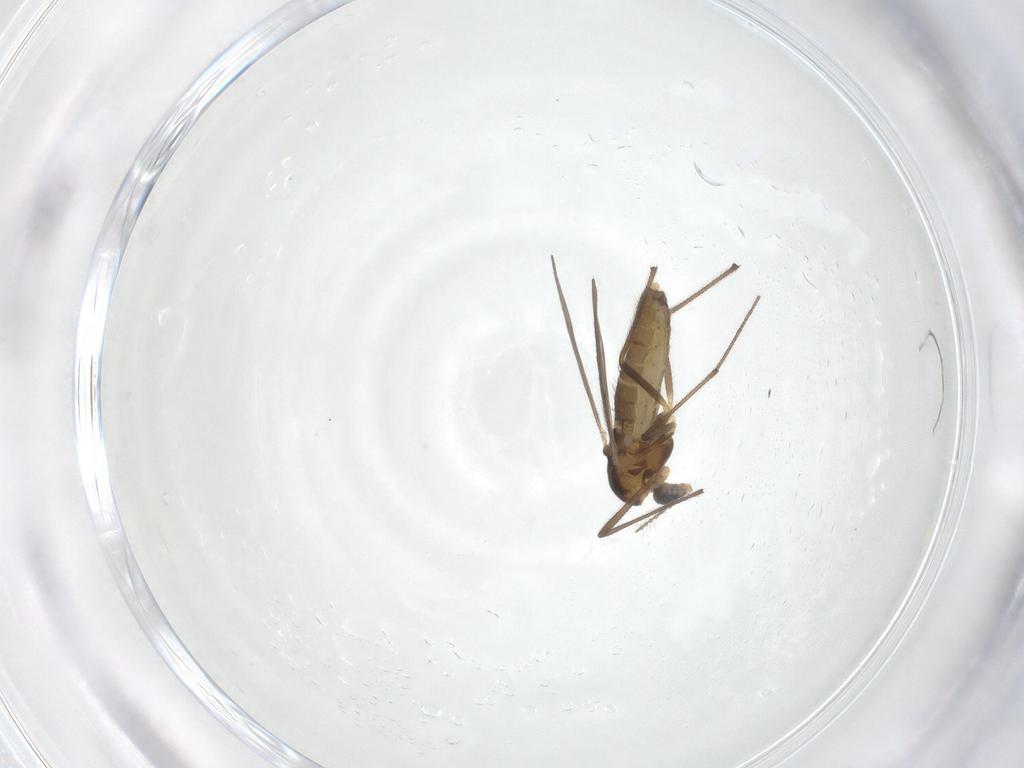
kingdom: Animalia
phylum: Arthropoda
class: Insecta
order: Diptera
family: Chironomidae
